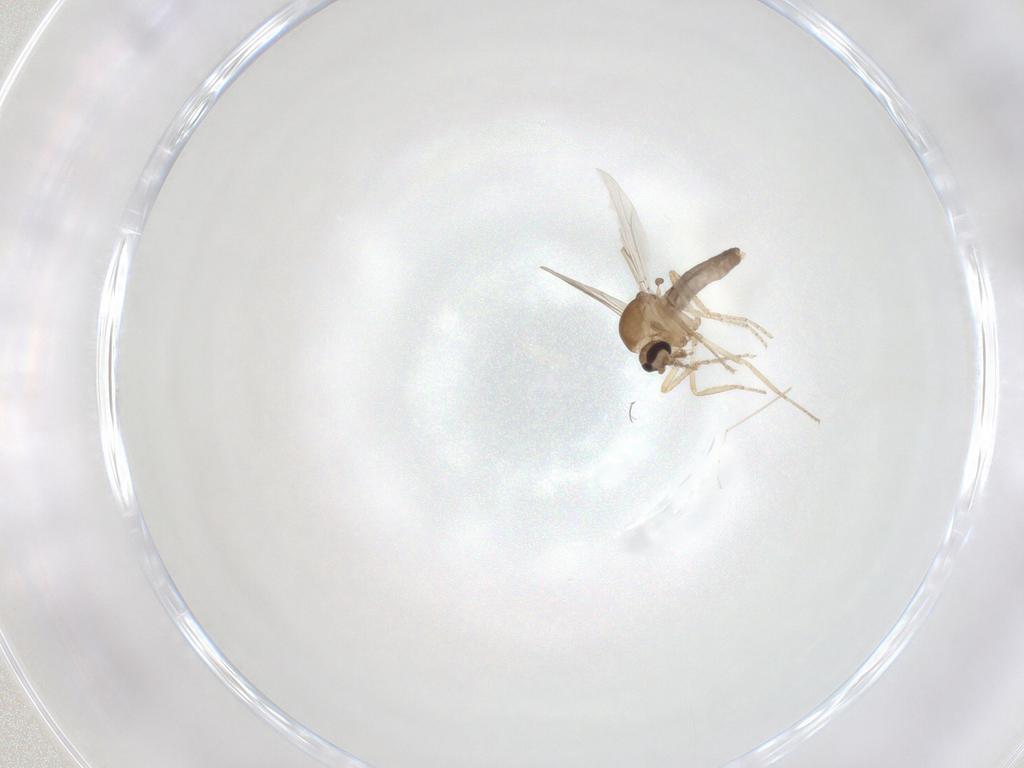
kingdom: Animalia
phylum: Arthropoda
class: Insecta
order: Diptera
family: Ceratopogonidae
